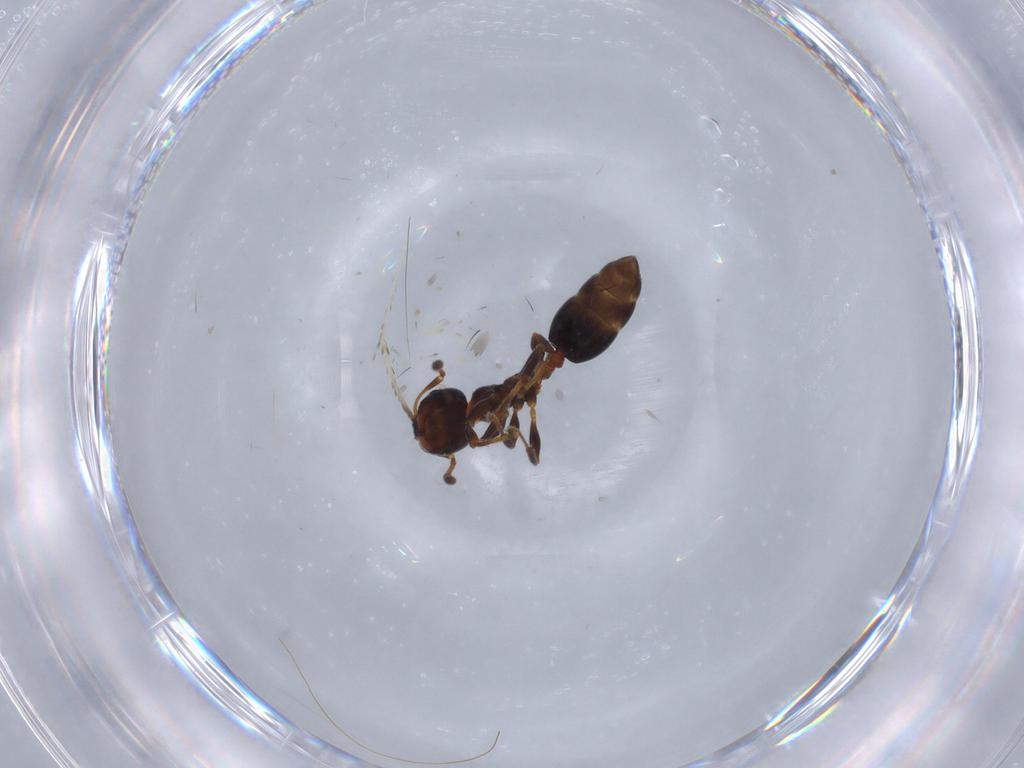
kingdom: Animalia
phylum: Arthropoda
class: Insecta
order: Hymenoptera
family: Formicidae
